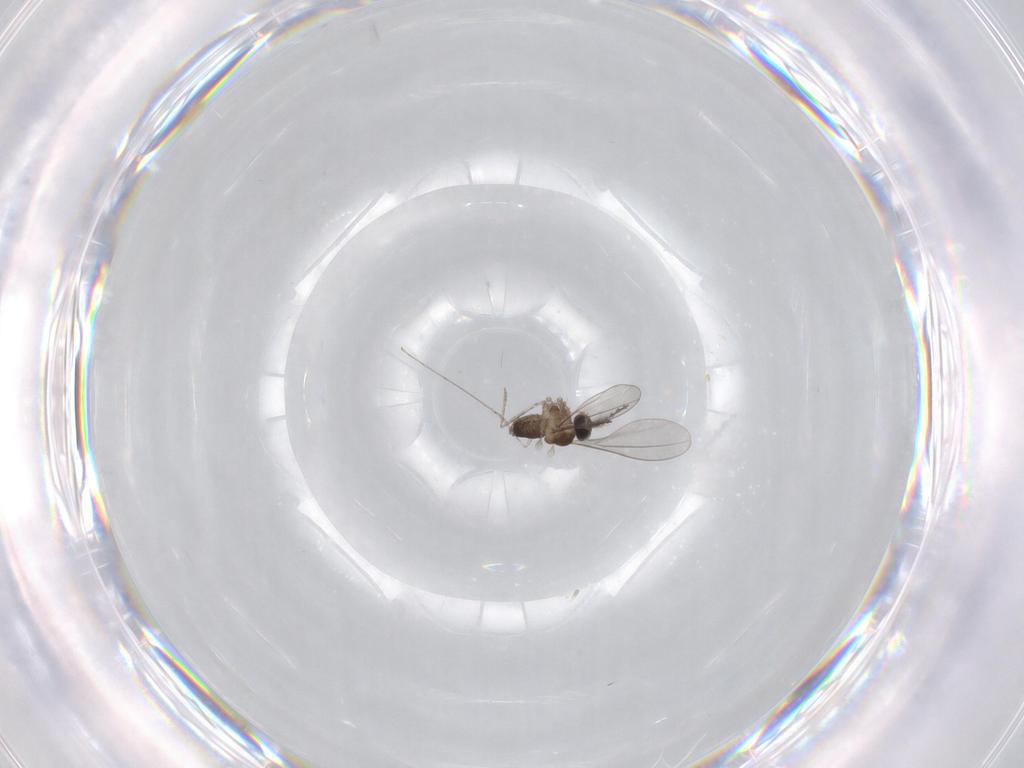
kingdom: Animalia
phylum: Arthropoda
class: Insecta
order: Diptera
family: Cecidomyiidae
